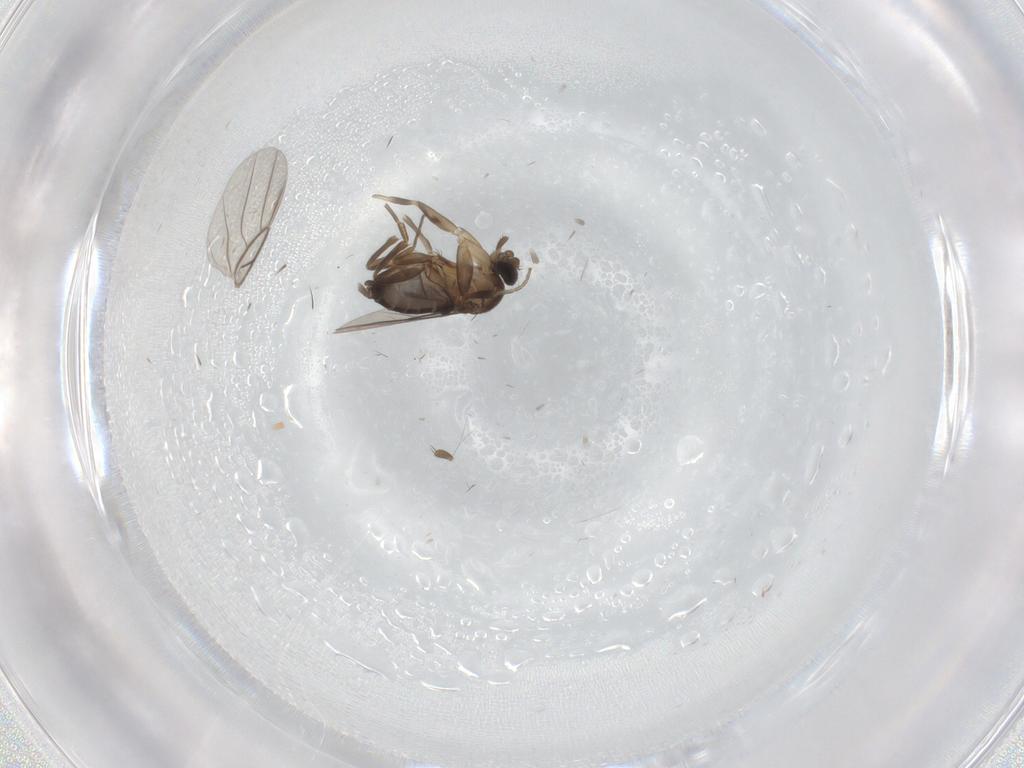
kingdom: Animalia
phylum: Arthropoda
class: Insecta
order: Diptera
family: Phoridae
